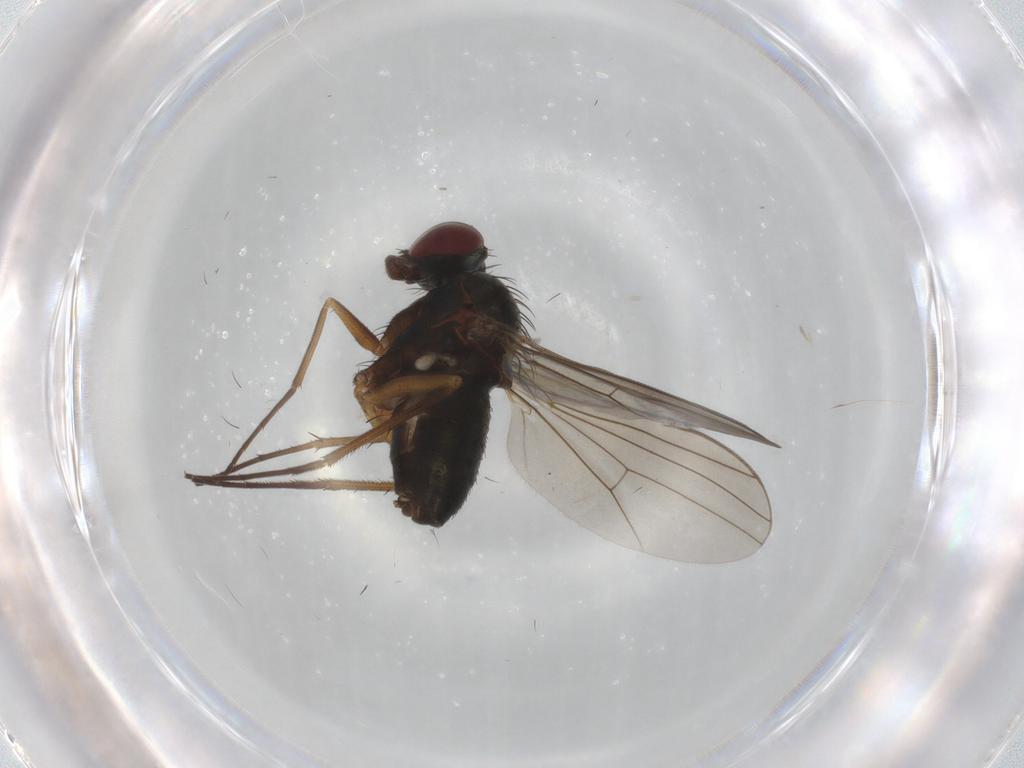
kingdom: Animalia
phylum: Arthropoda
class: Insecta
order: Diptera
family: Dolichopodidae
